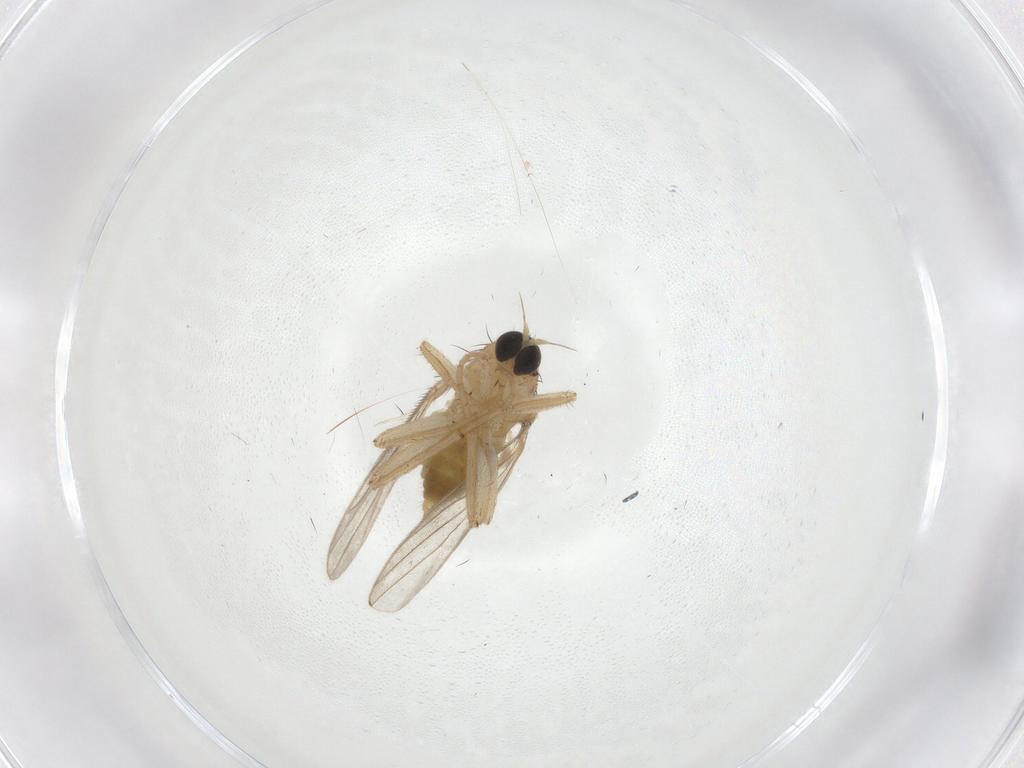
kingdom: Animalia
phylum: Arthropoda
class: Insecta
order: Diptera
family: Hybotidae
